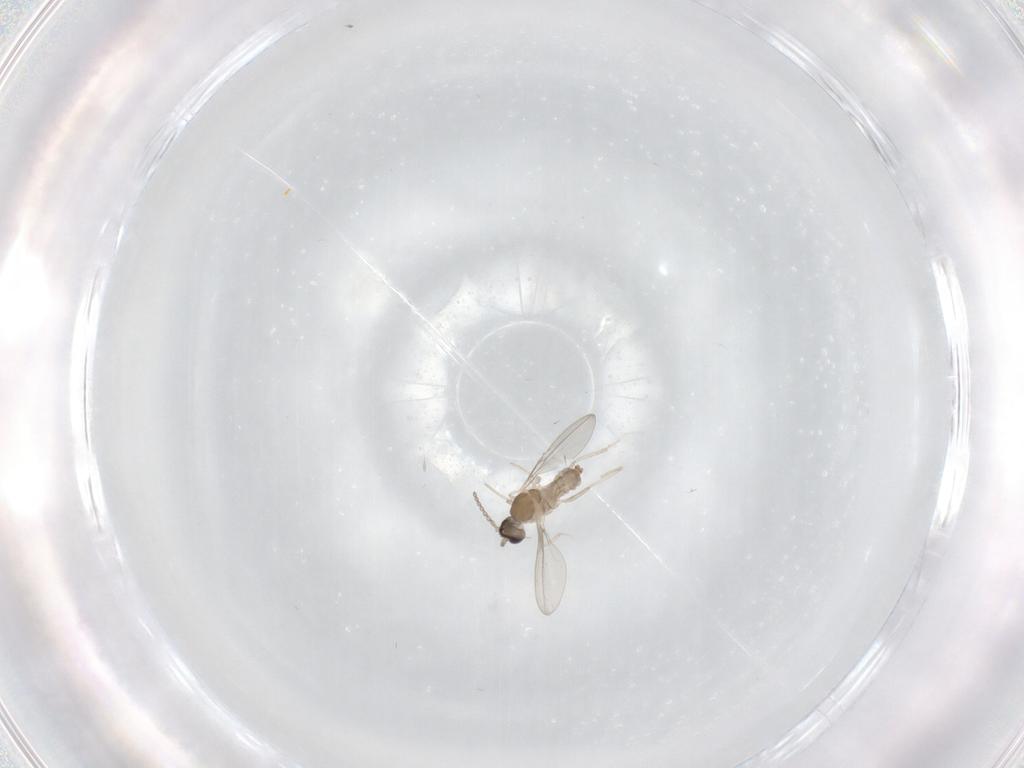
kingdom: Animalia
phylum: Arthropoda
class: Insecta
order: Diptera
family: Cecidomyiidae
